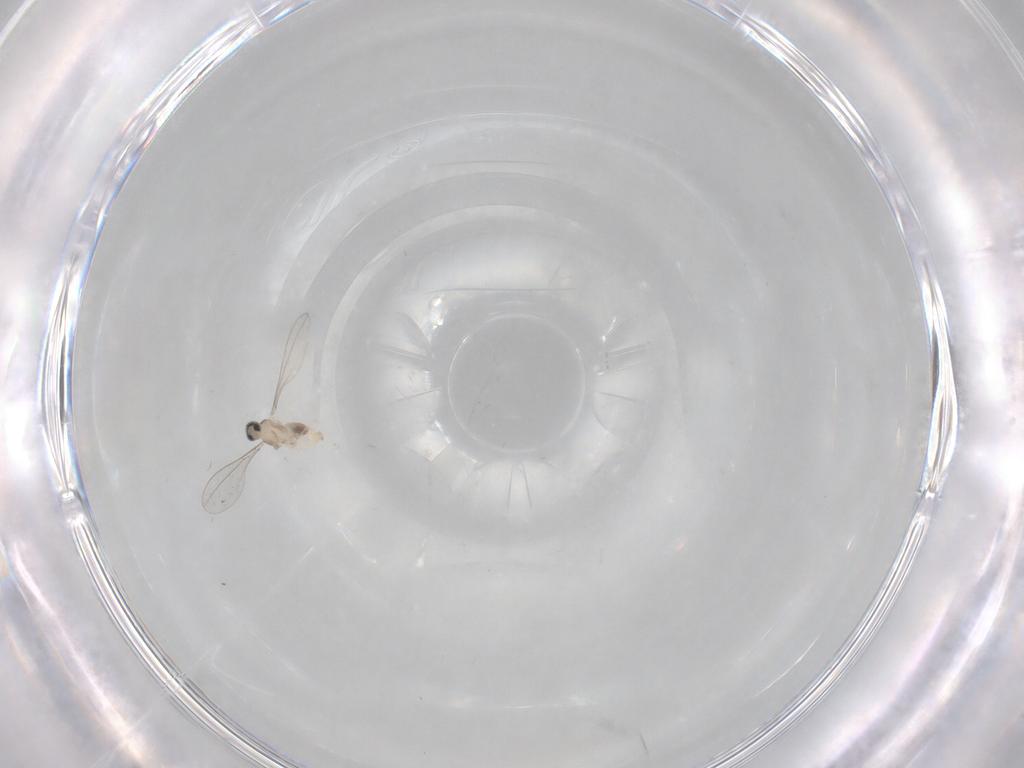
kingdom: Animalia
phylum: Arthropoda
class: Insecta
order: Diptera
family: Cecidomyiidae
